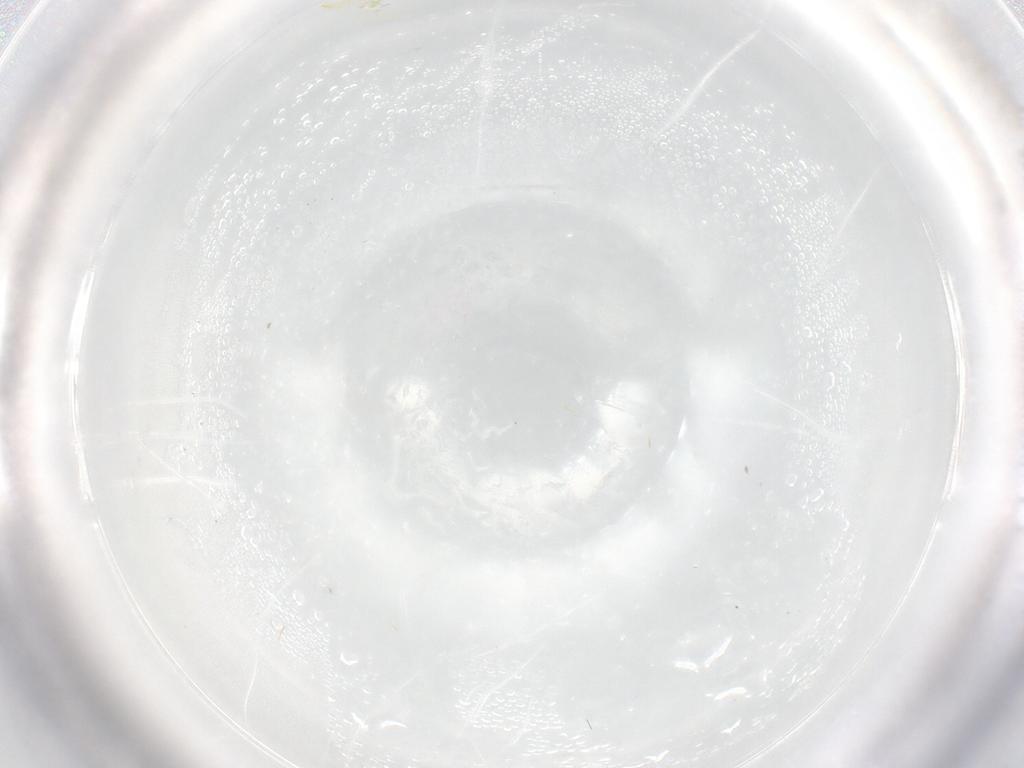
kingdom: Animalia
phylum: Arthropoda
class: Insecta
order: Hemiptera
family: Aleyrodidae
